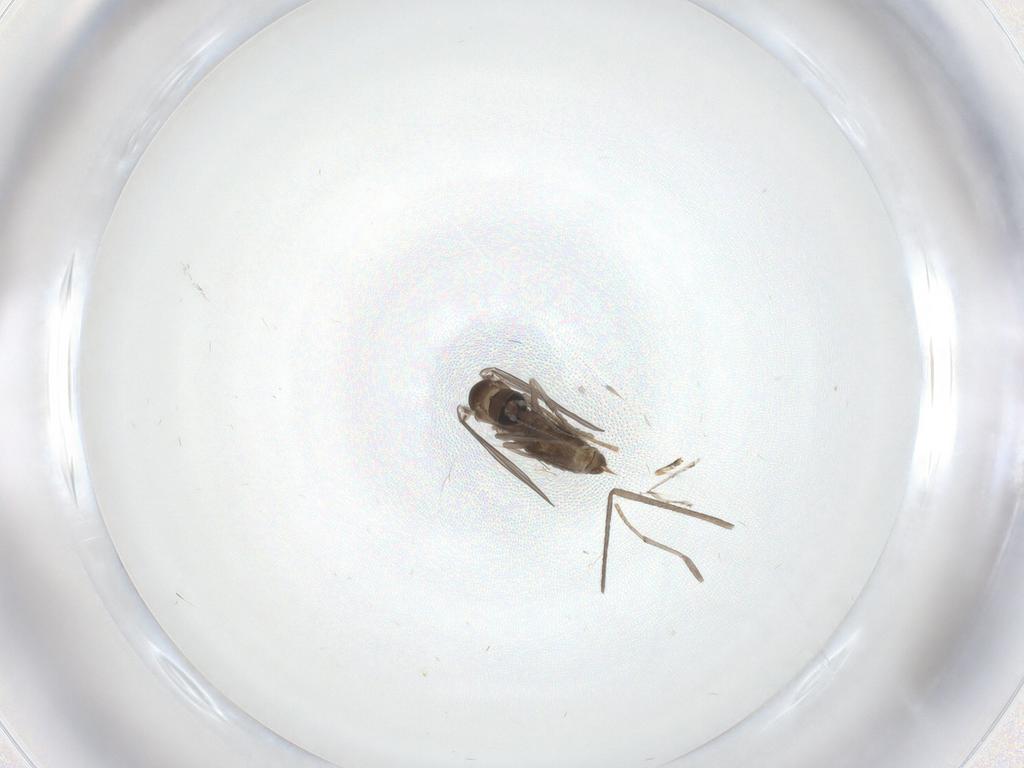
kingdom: Animalia
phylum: Arthropoda
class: Insecta
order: Diptera
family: Psychodidae
